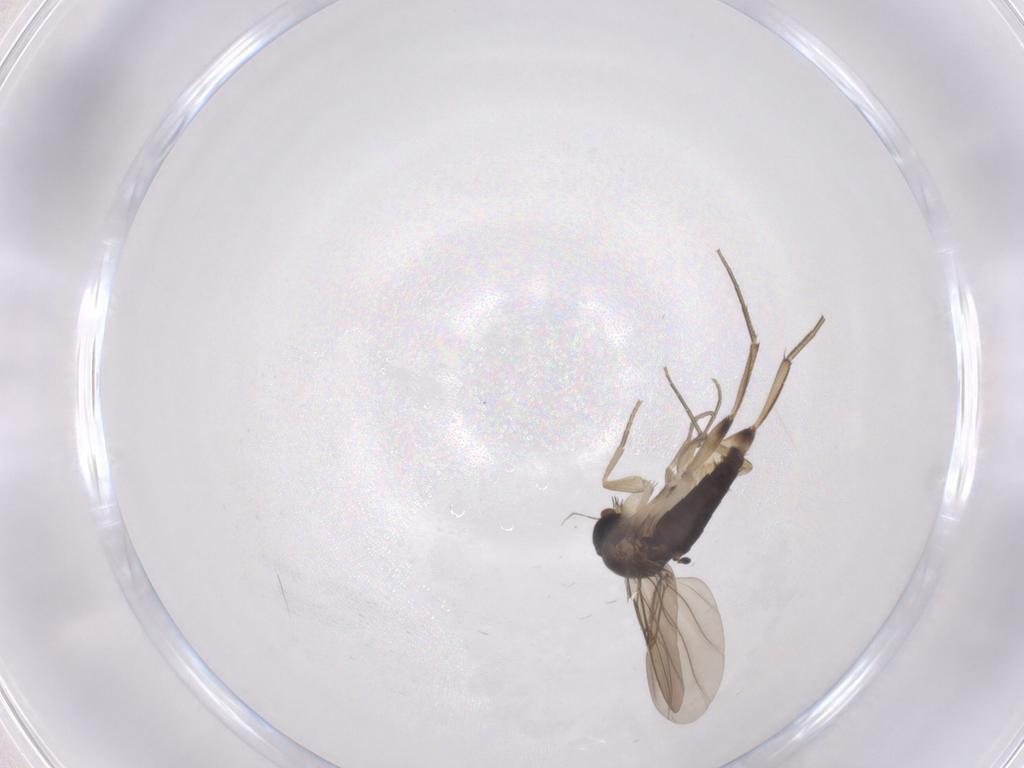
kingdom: Animalia
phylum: Arthropoda
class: Insecta
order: Diptera
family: Phoridae
